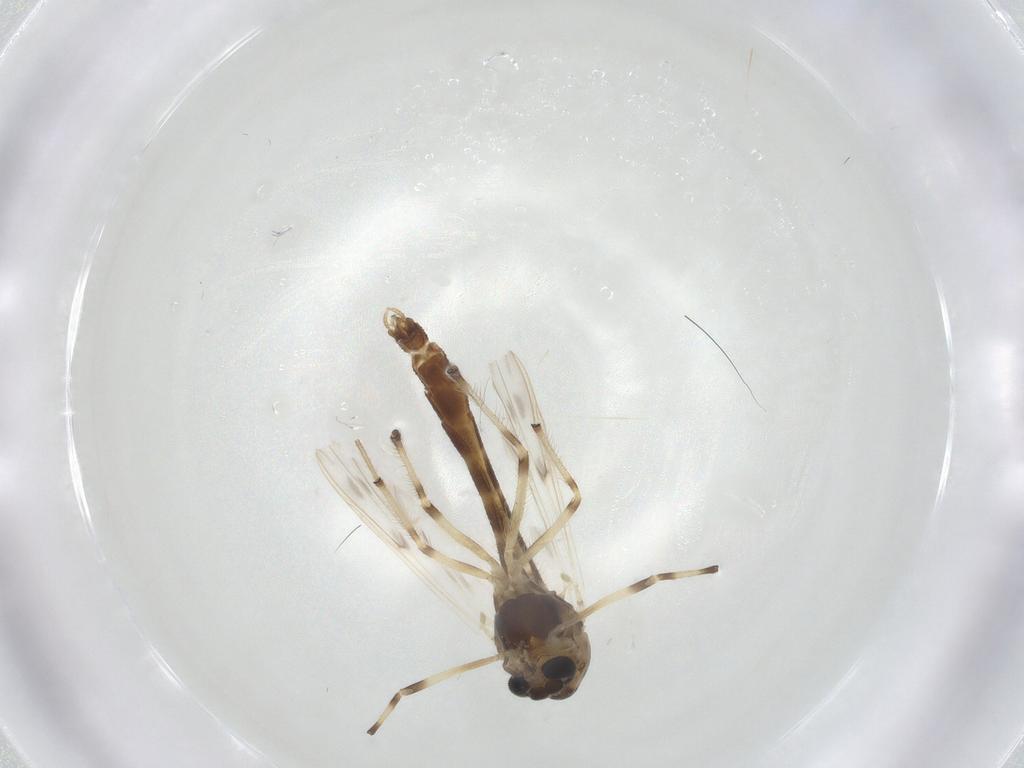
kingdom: Animalia
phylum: Arthropoda
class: Insecta
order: Diptera
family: Chironomidae
